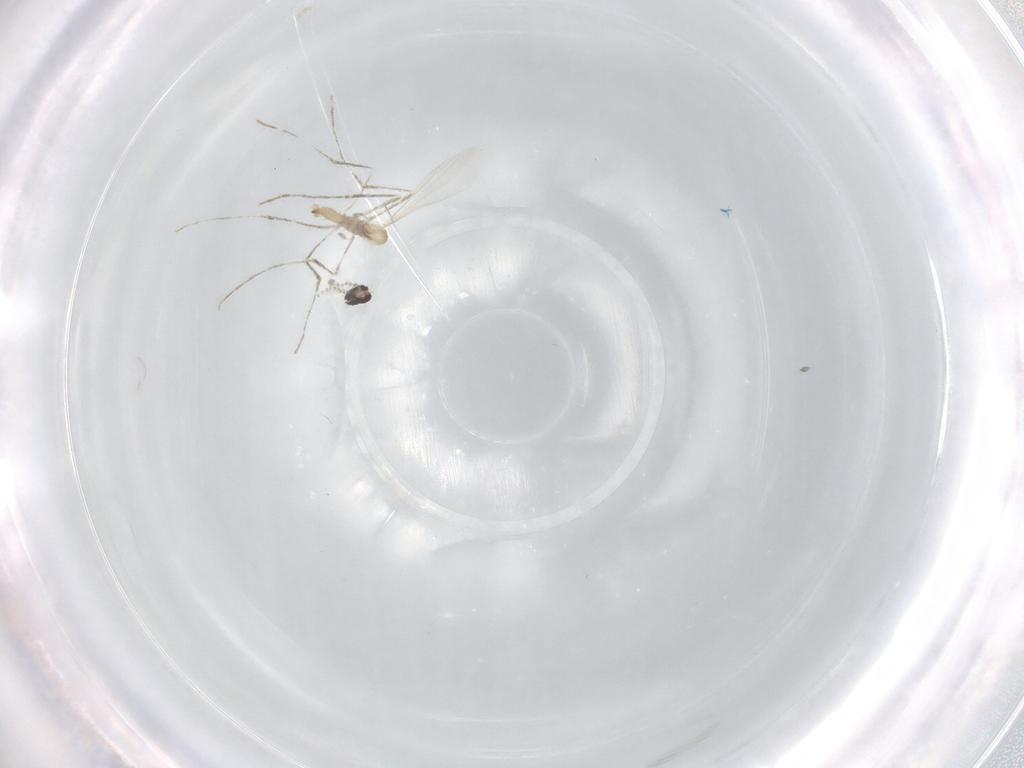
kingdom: Animalia
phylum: Arthropoda
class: Insecta
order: Diptera
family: Cecidomyiidae
